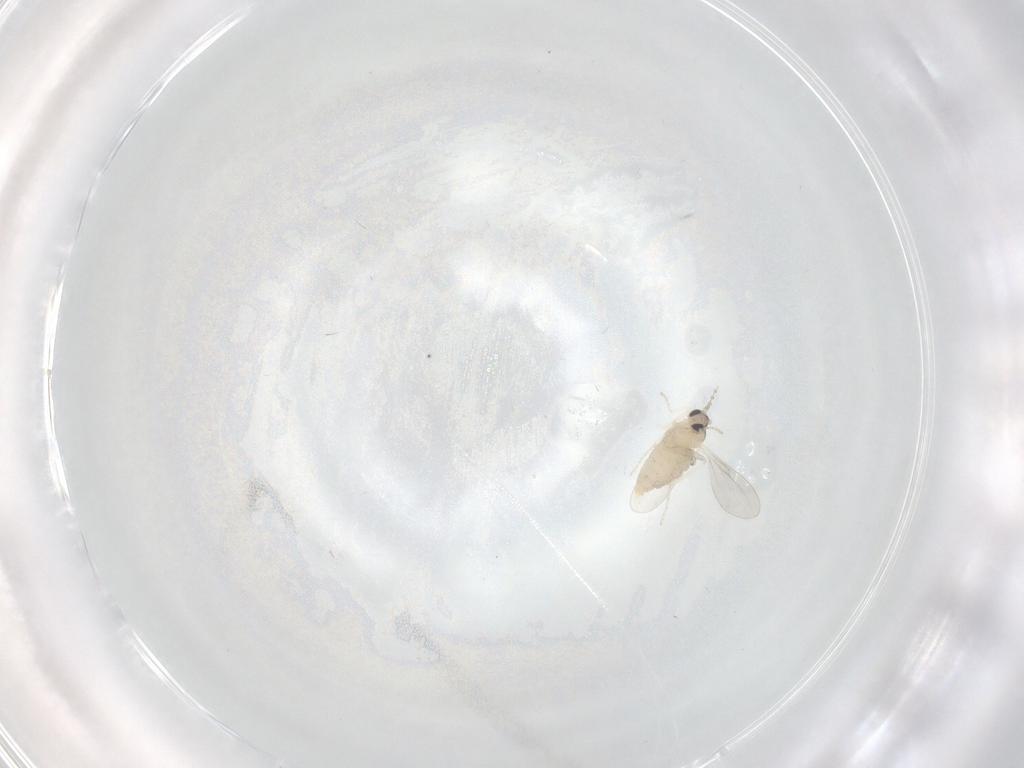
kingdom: Animalia
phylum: Arthropoda
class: Insecta
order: Diptera
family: Cecidomyiidae
